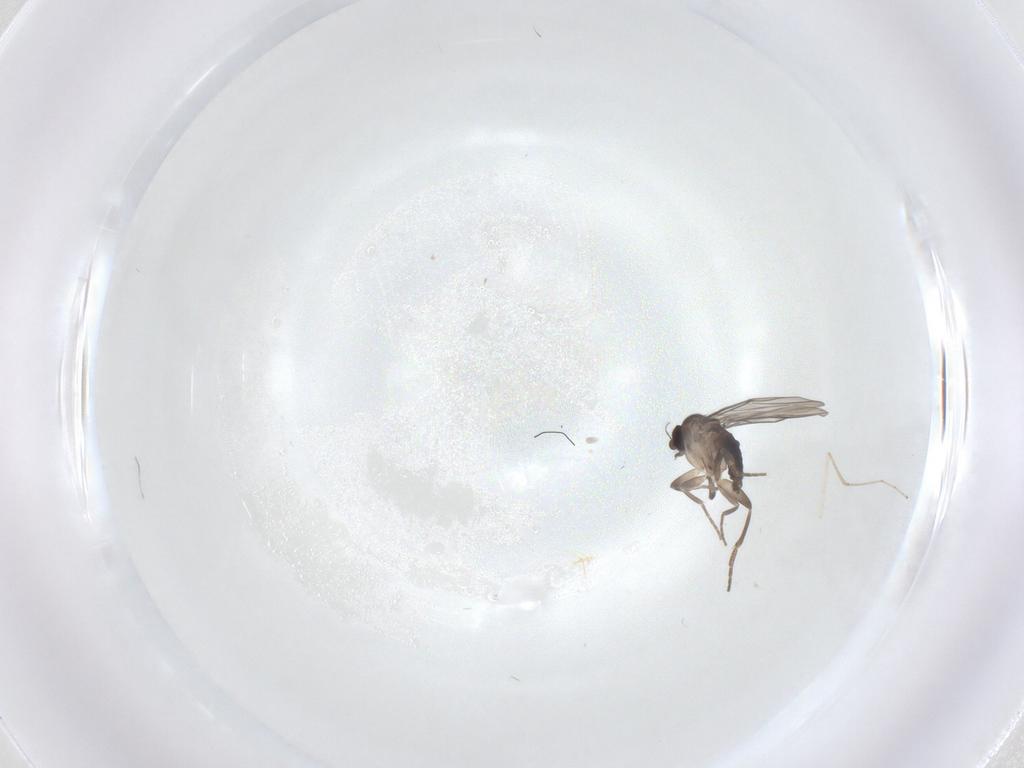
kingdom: Animalia
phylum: Arthropoda
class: Insecta
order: Diptera
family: Cecidomyiidae
